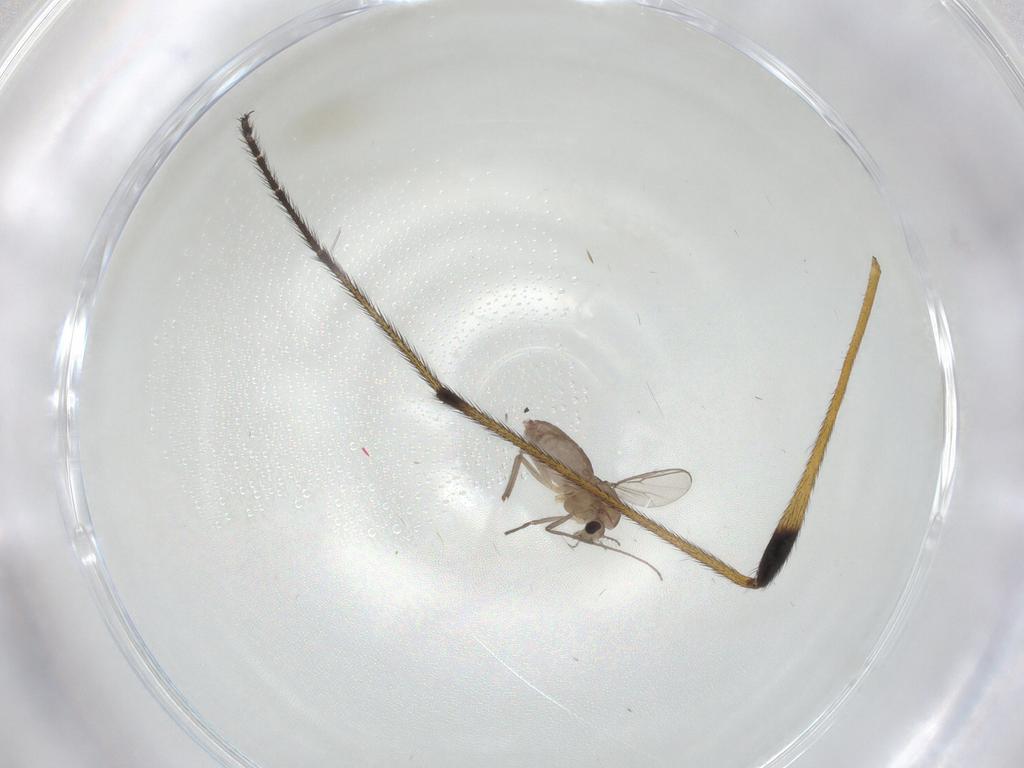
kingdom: Animalia
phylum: Arthropoda
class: Insecta
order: Diptera
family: Chironomidae
